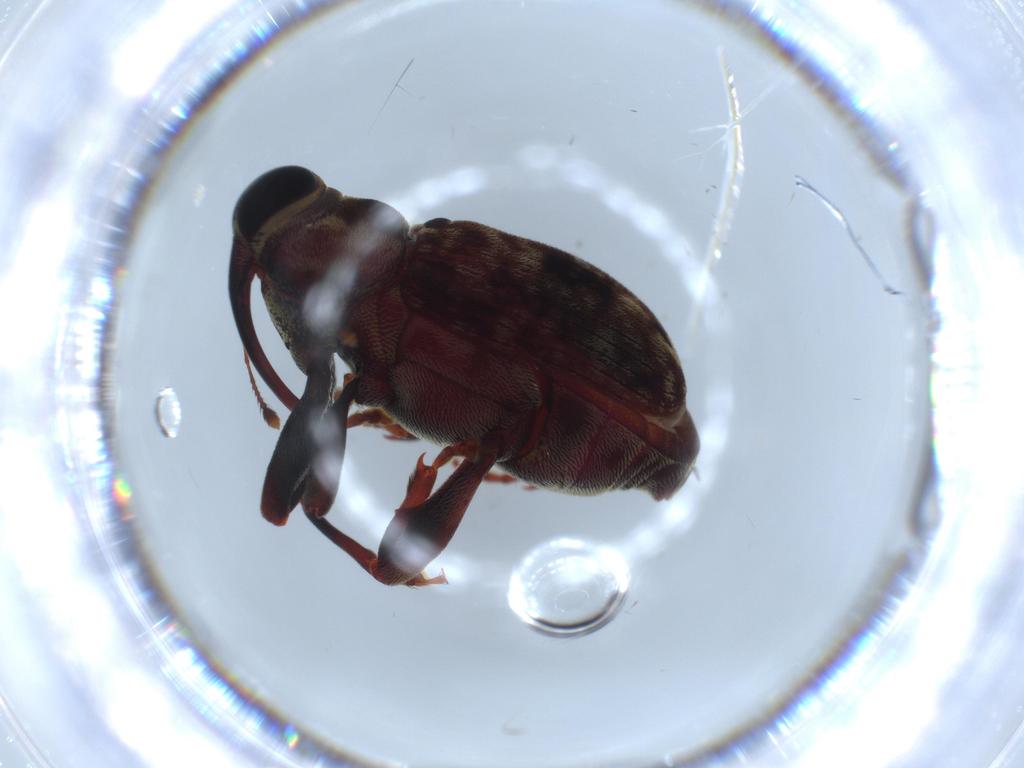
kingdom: Animalia
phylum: Arthropoda
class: Insecta
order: Coleoptera
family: Curculionidae
